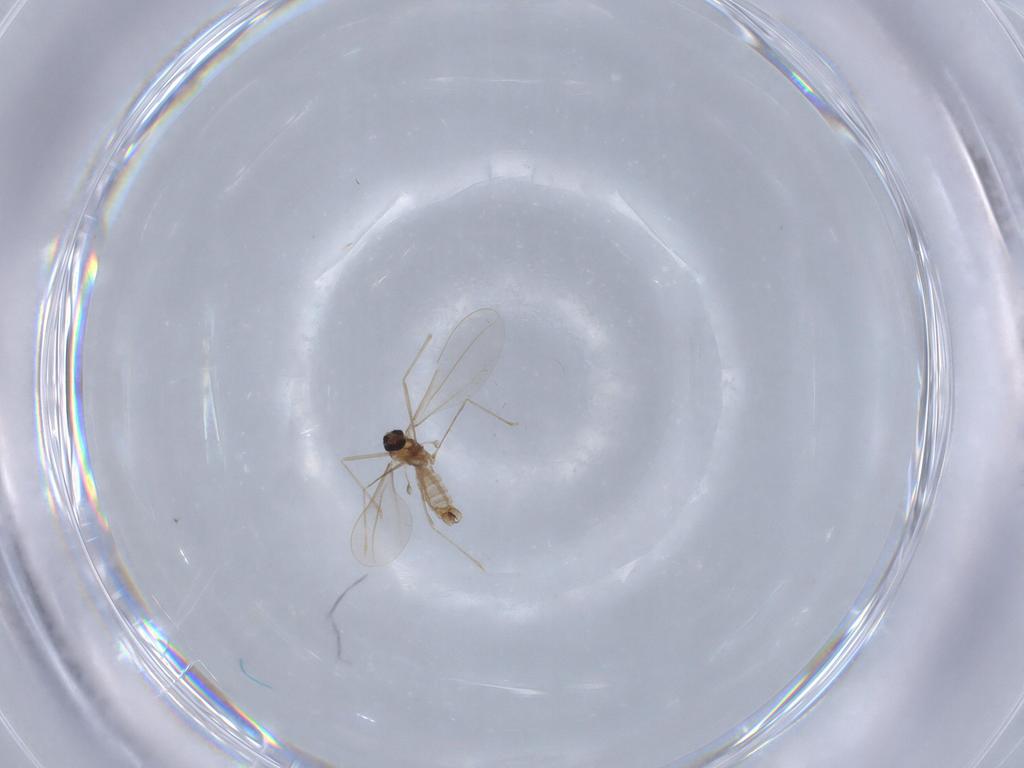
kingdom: Animalia
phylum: Arthropoda
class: Insecta
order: Diptera
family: Cecidomyiidae
